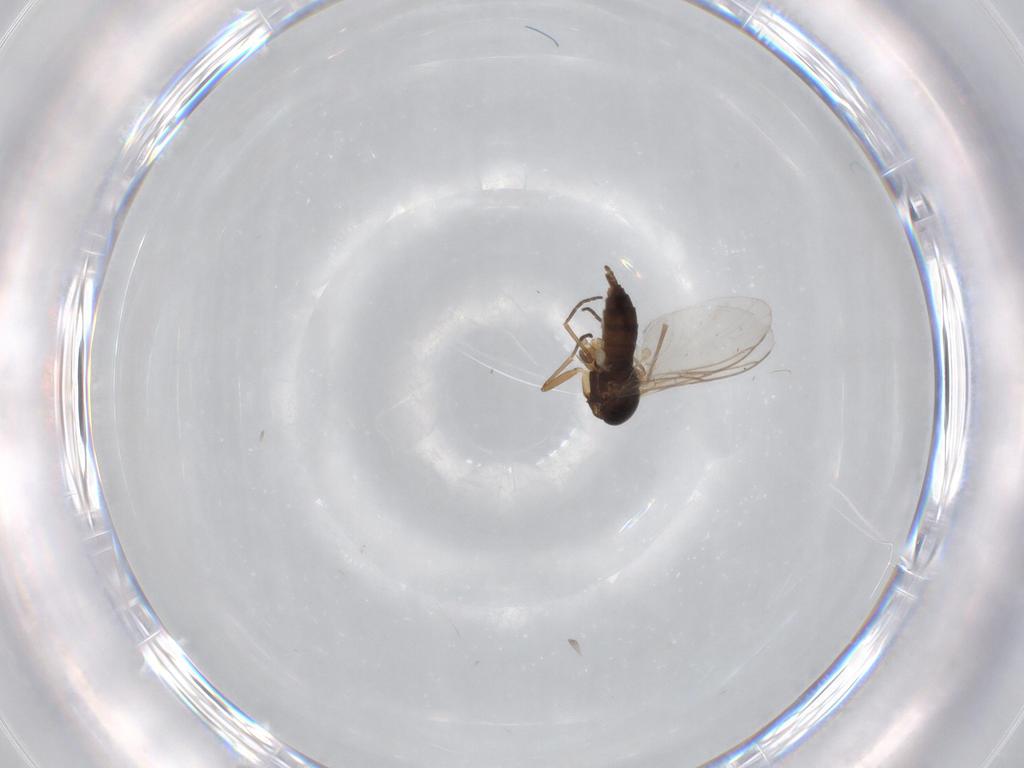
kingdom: Animalia
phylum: Arthropoda
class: Insecta
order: Diptera
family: Sciaridae
